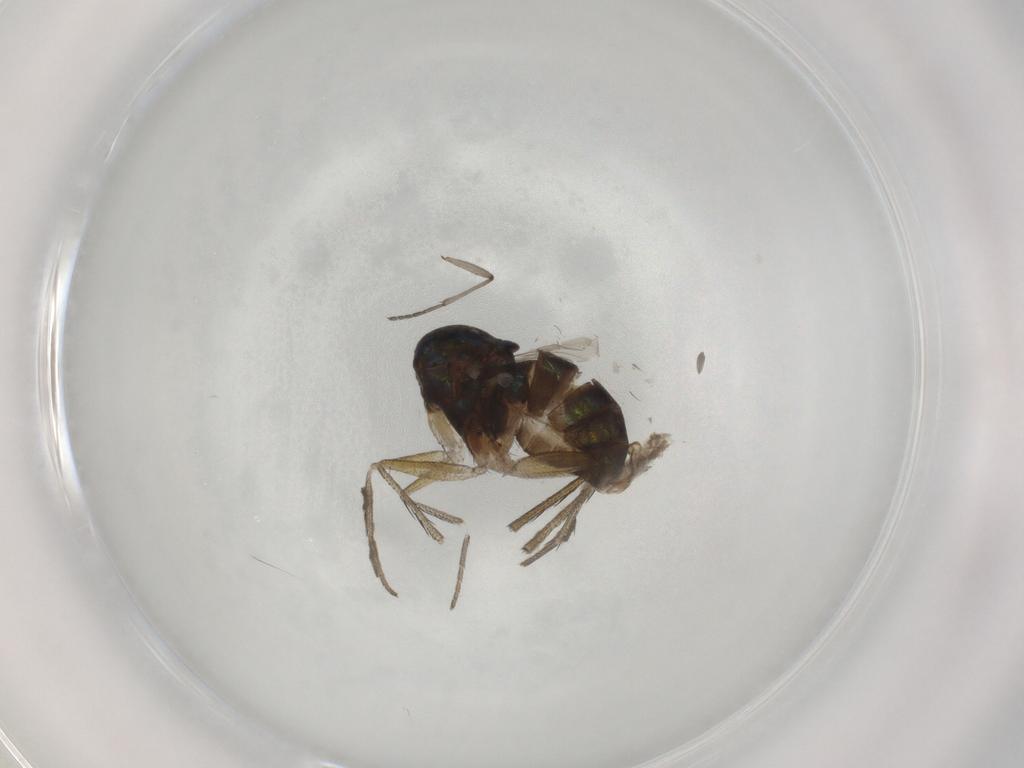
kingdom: Animalia
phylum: Arthropoda
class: Insecta
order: Diptera
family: Dolichopodidae
